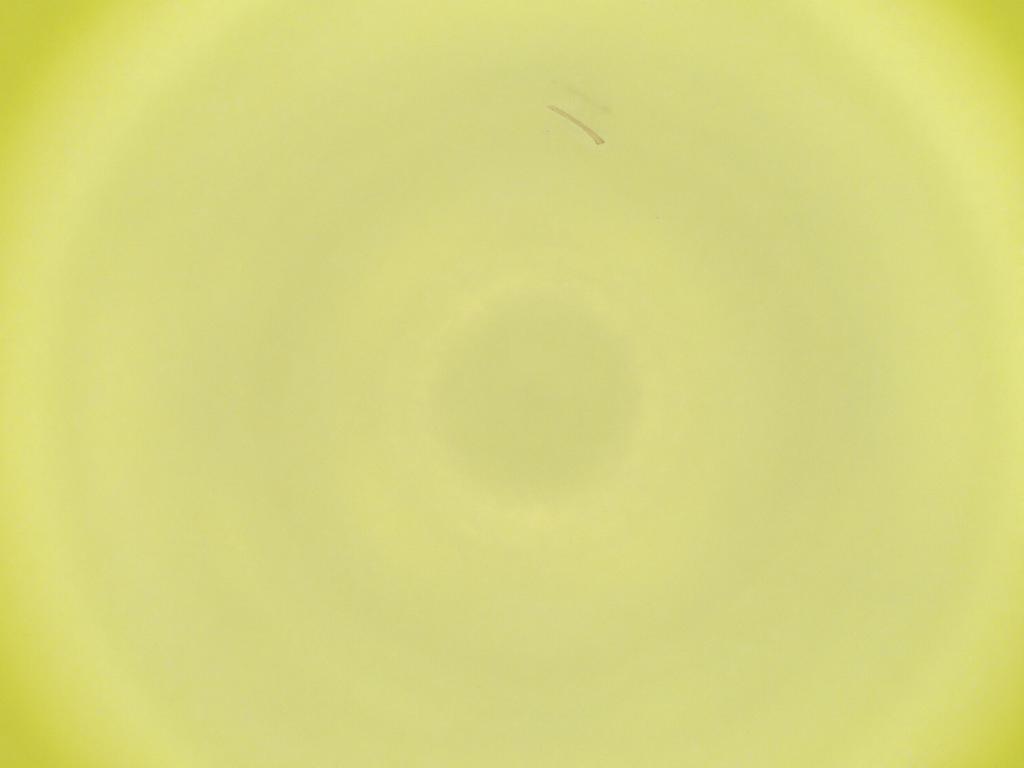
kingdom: Animalia
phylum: Arthropoda
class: Insecta
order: Diptera
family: Cecidomyiidae
